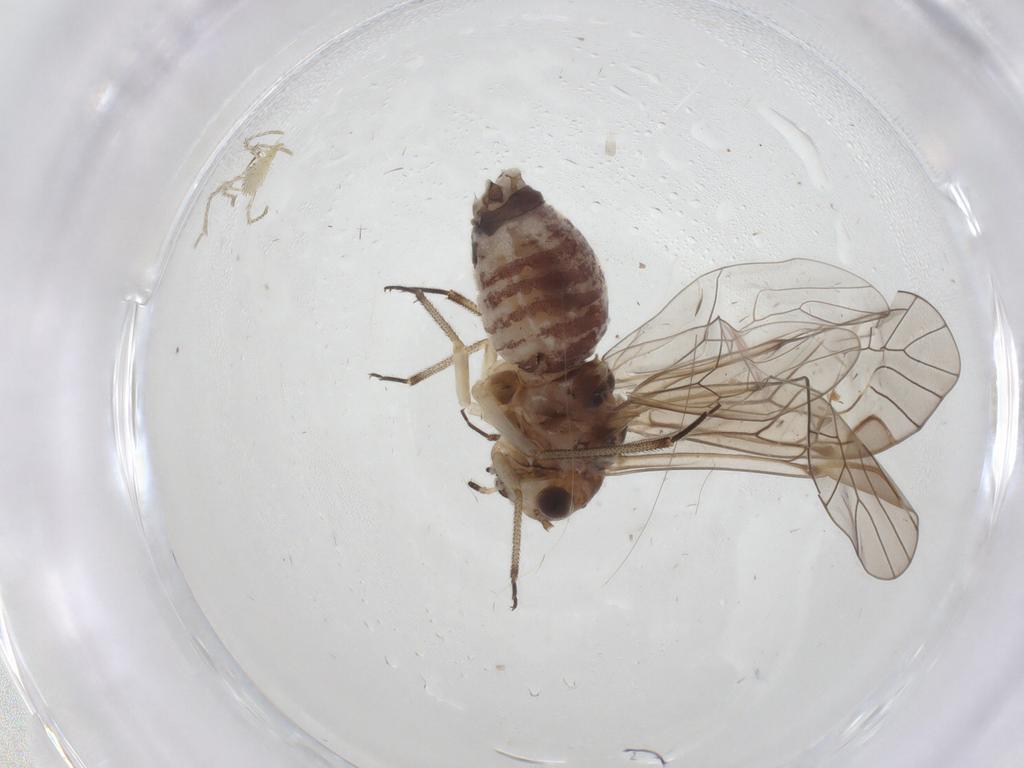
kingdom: Animalia
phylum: Arthropoda
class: Insecta
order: Psocodea
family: Psocidae
